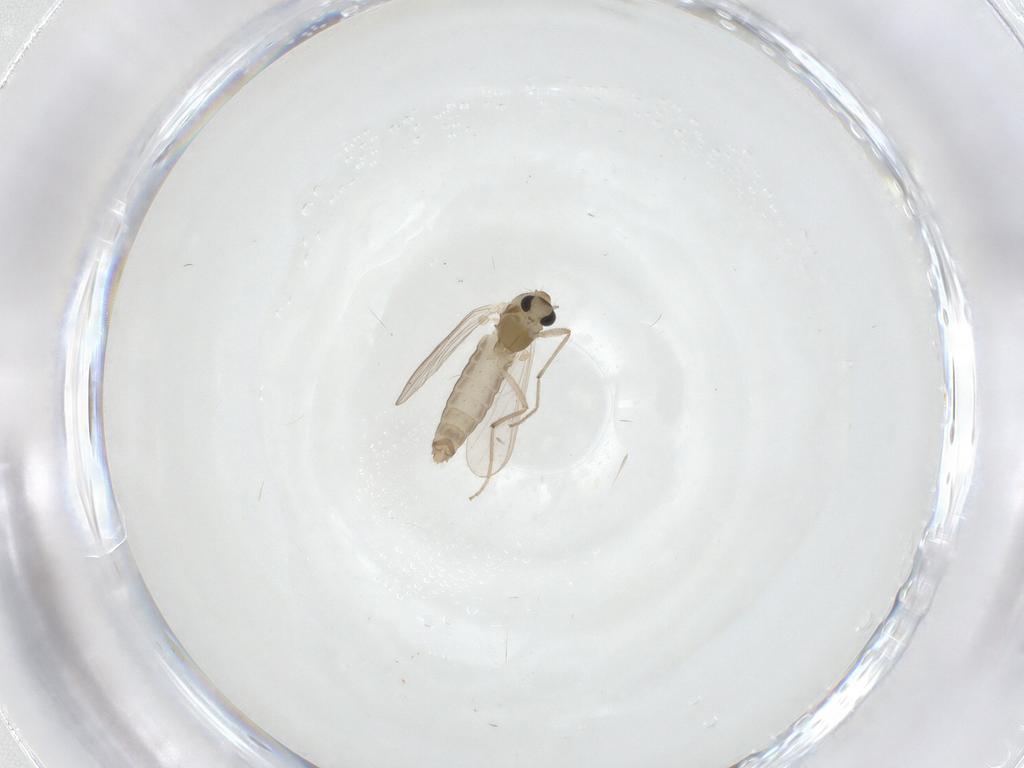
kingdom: Animalia
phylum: Arthropoda
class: Insecta
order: Diptera
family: Chironomidae
